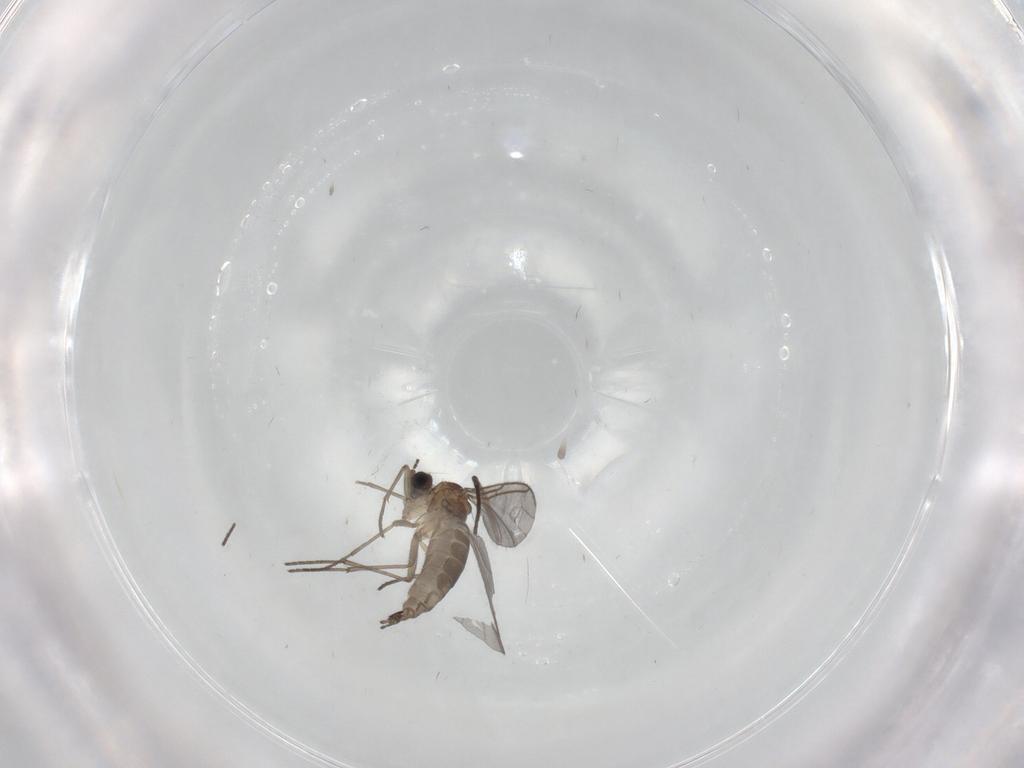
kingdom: Animalia
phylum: Arthropoda
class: Insecta
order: Diptera
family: Sciaridae
